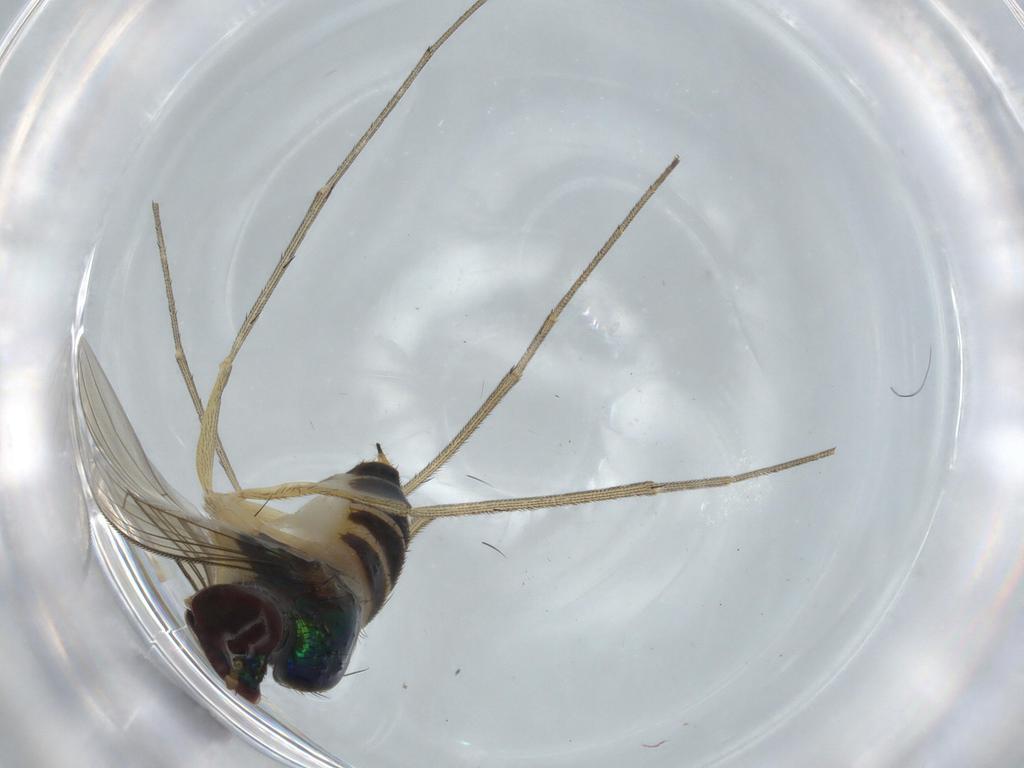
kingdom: Animalia
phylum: Arthropoda
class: Insecta
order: Diptera
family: Dolichopodidae
